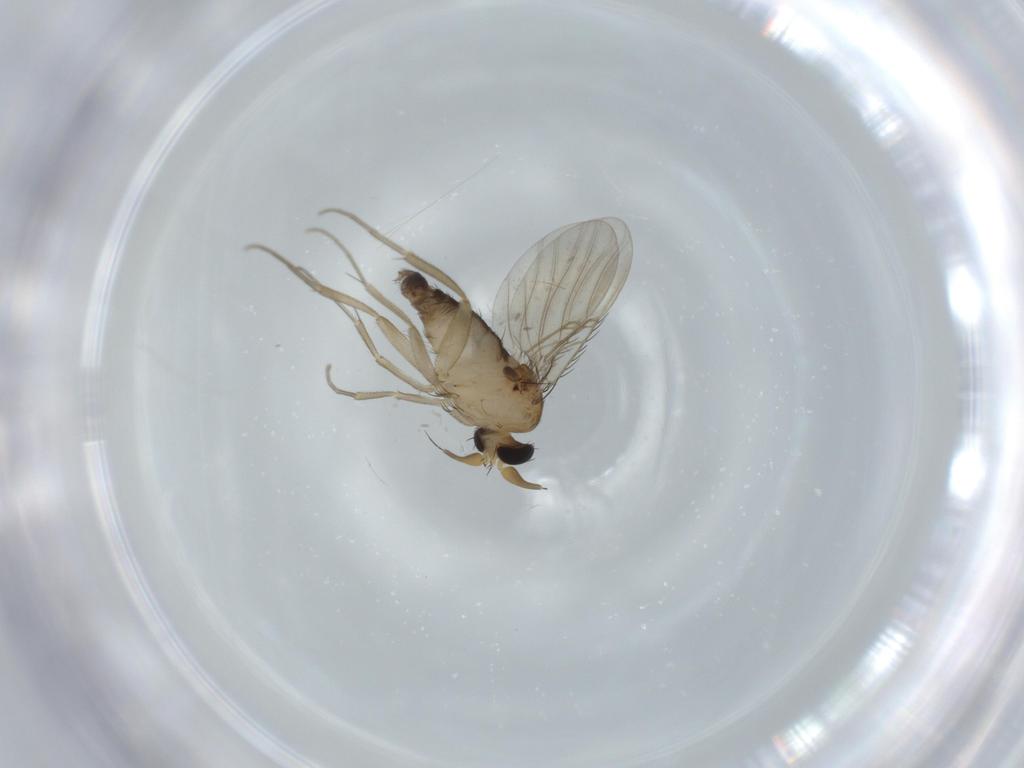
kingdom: Animalia
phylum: Arthropoda
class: Insecta
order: Diptera
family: Phoridae
